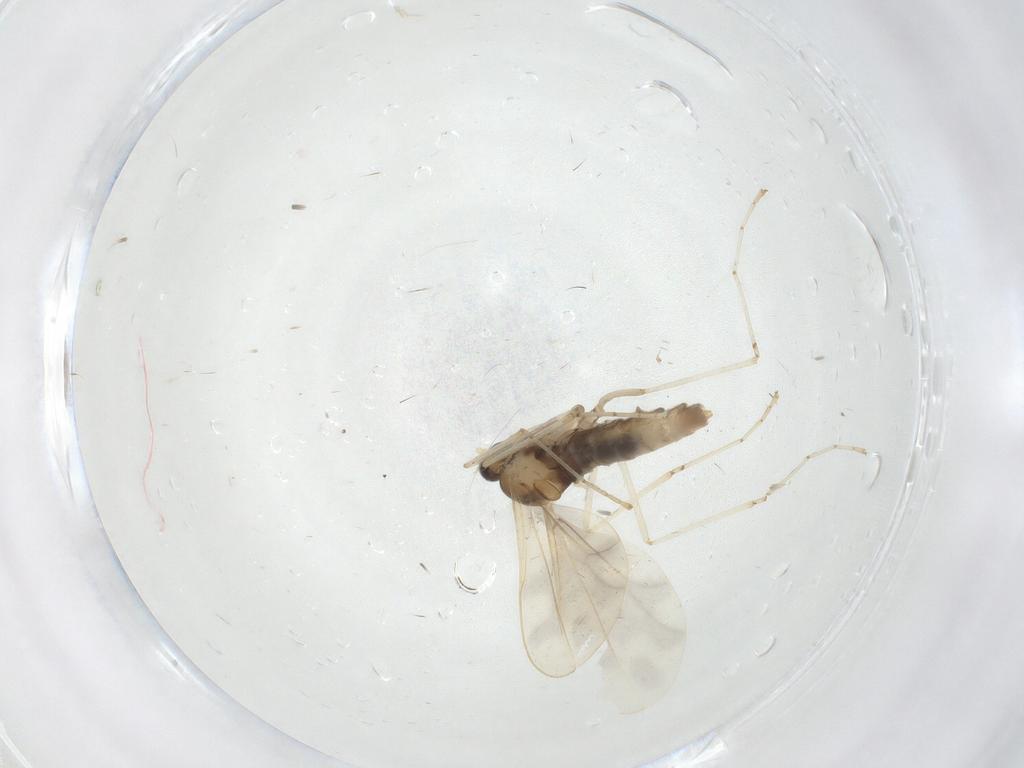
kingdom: Animalia
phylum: Arthropoda
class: Insecta
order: Diptera
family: Cecidomyiidae
